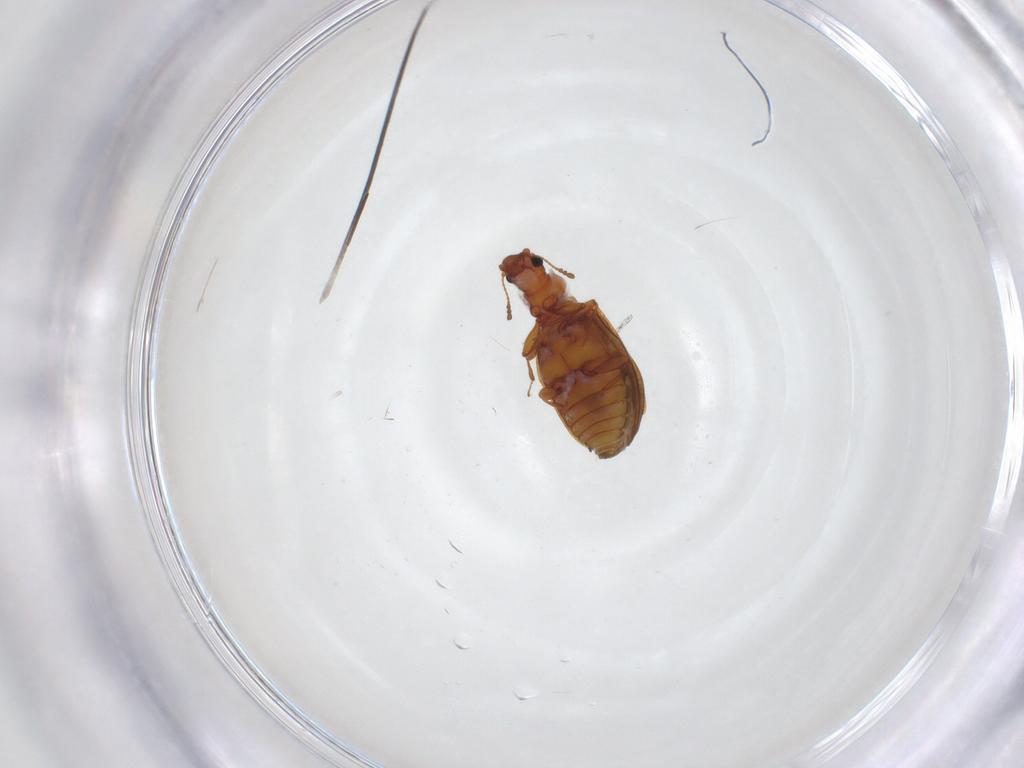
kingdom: Animalia
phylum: Arthropoda
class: Insecta
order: Coleoptera
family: Latridiidae
